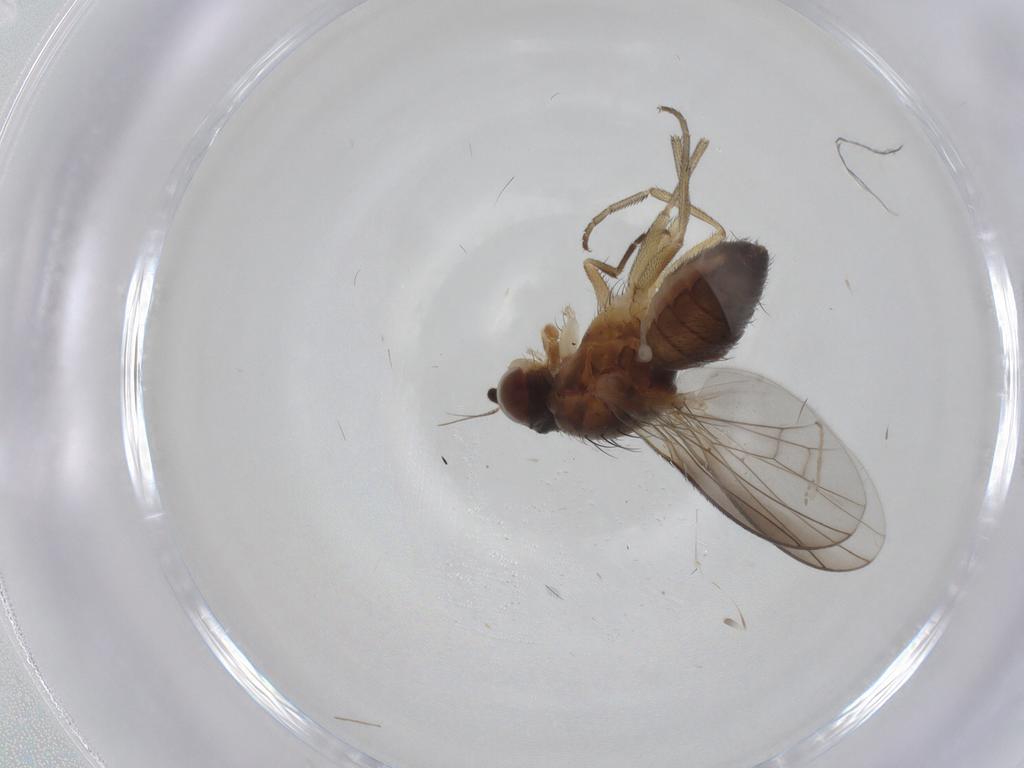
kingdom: Animalia
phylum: Arthropoda
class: Insecta
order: Diptera
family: Heleomyzidae
